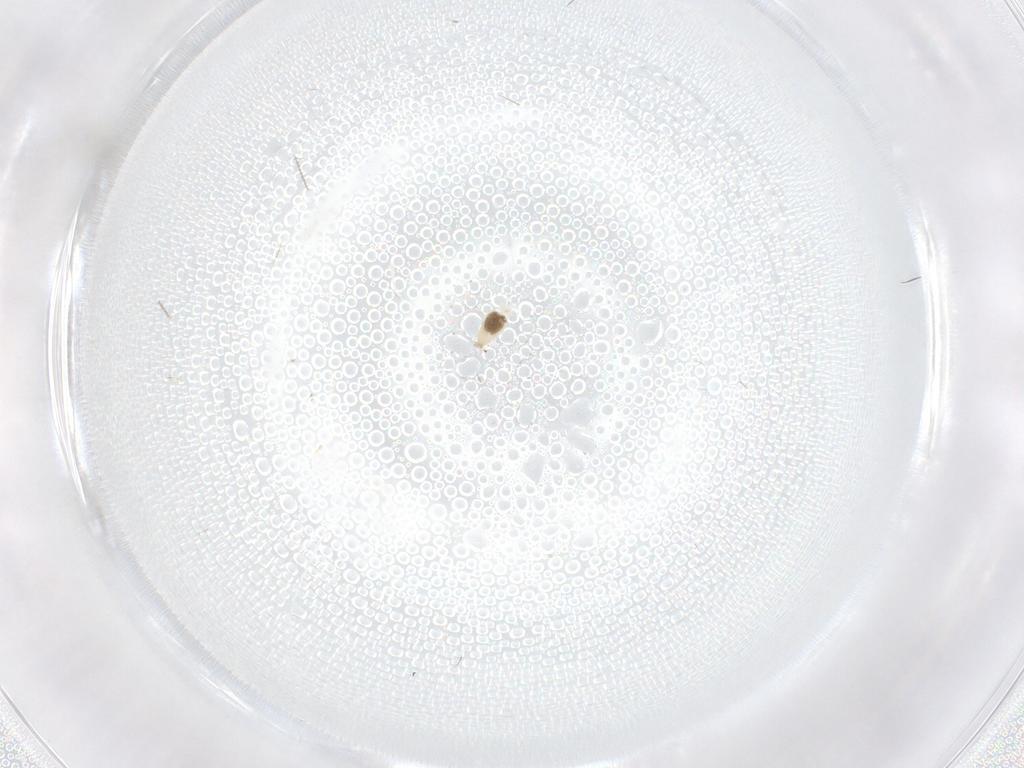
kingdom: Animalia
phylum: Arthropoda
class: Insecta
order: Diptera
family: Cecidomyiidae
